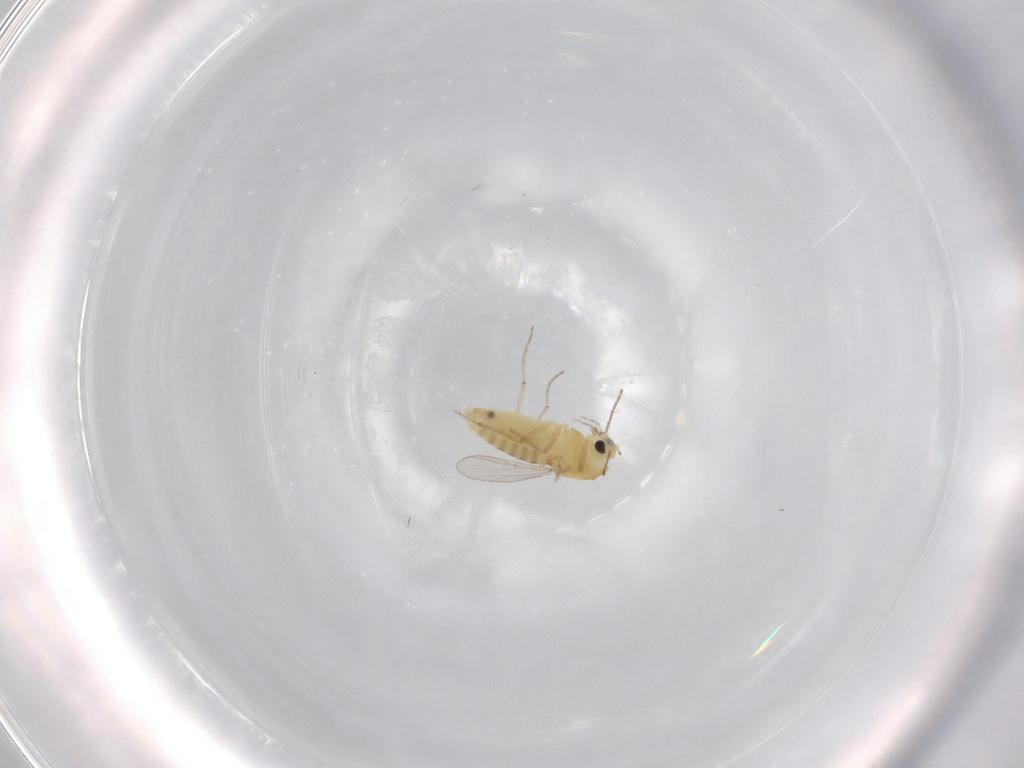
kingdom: Animalia
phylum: Arthropoda
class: Insecta
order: Diptera
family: Chironomidae
